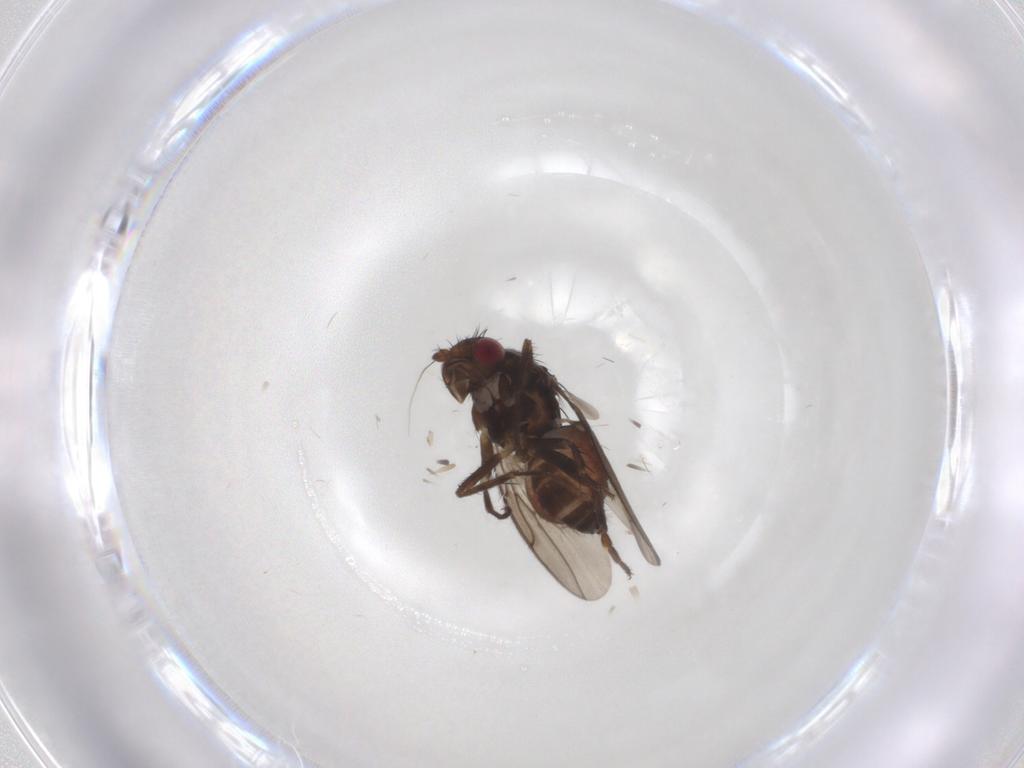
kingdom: Animalia
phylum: Arthropoda
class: Insecta
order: Diptera
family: Sphaeroceridae
